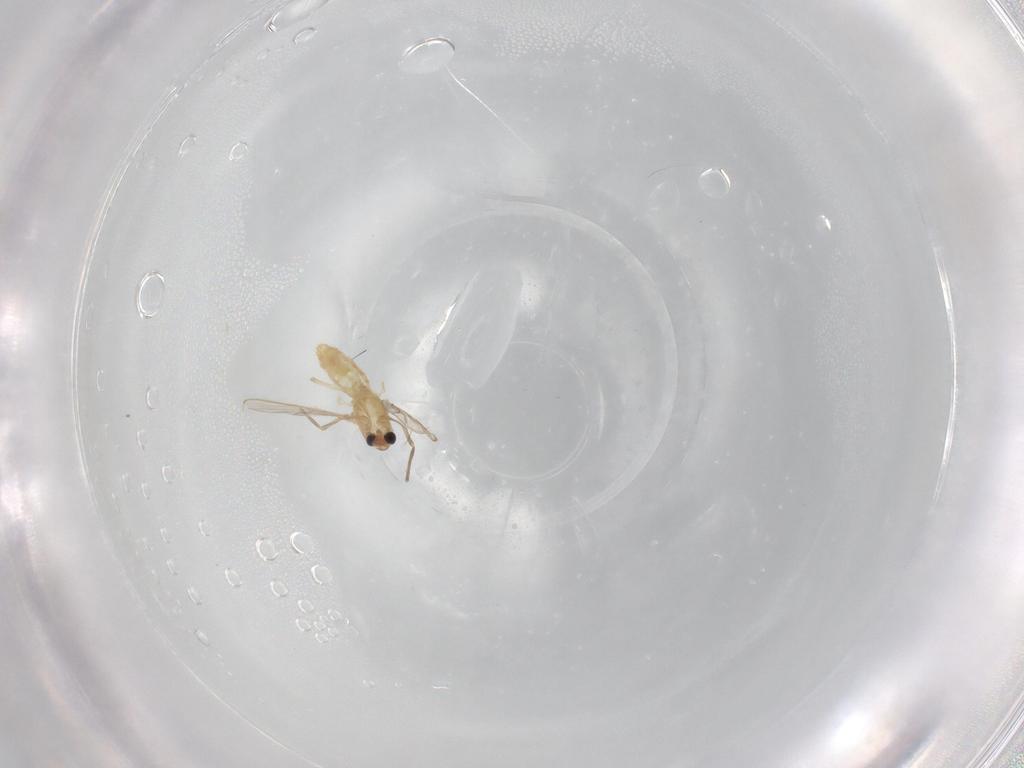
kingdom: Animalia
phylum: Arthropoda
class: Insecta
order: Diptera
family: Chironomidae
